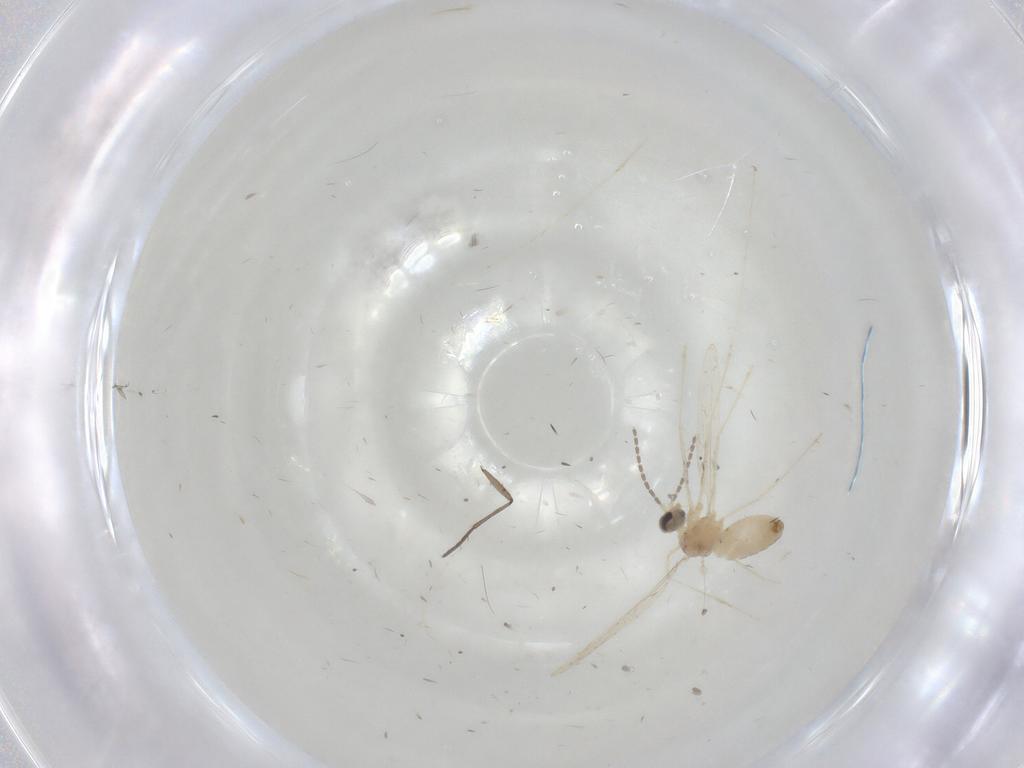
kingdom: Animalia
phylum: Arthropoda
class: Insecta
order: Diptera
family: Cecidomyiidae
